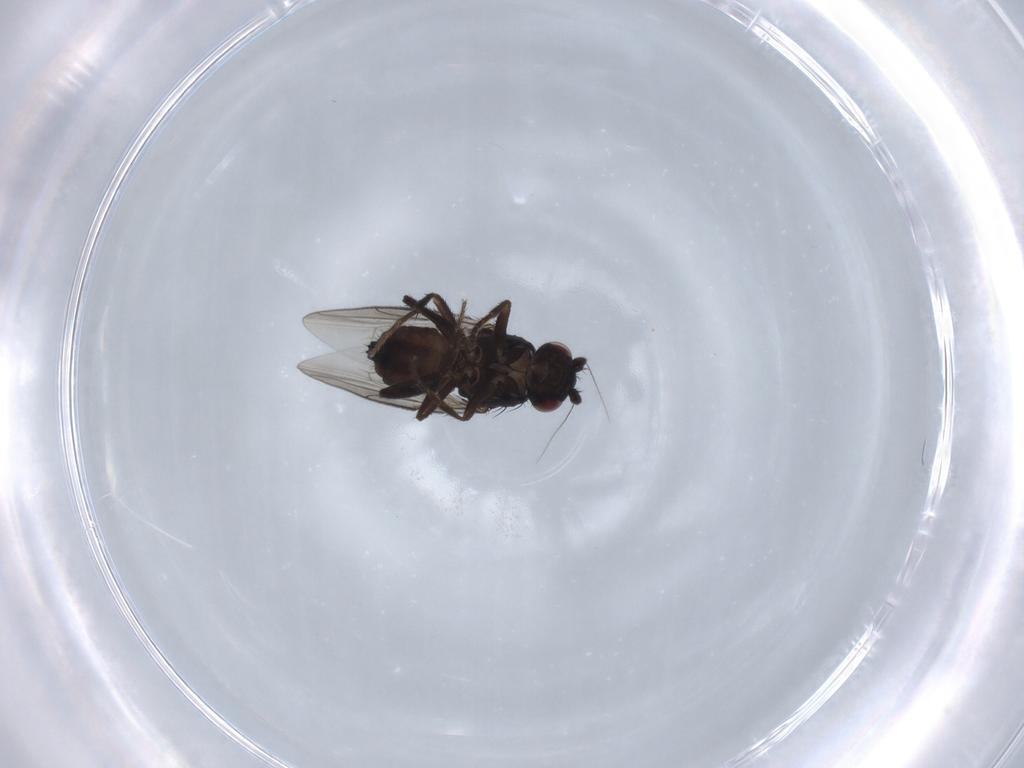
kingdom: Animalia
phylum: Arthropoda
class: Insecta
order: Diptera
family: Sphaeroceridae
